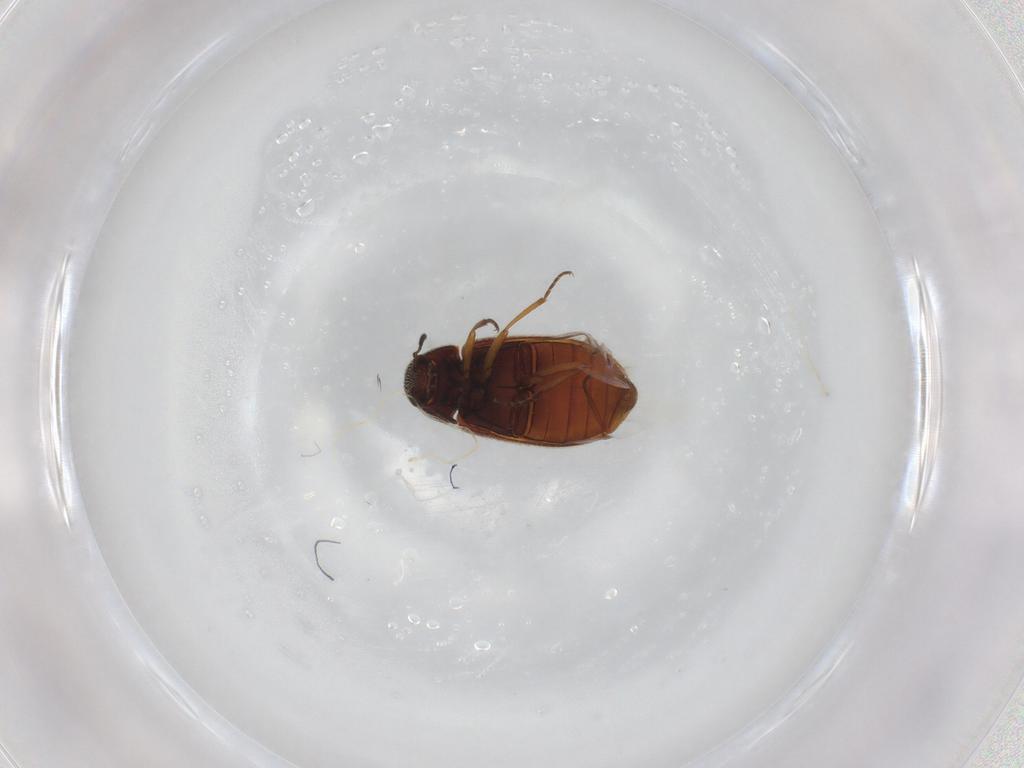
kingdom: Animalia
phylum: Arthropoda
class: Insecta
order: Coleoptera
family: Rhadalidae
